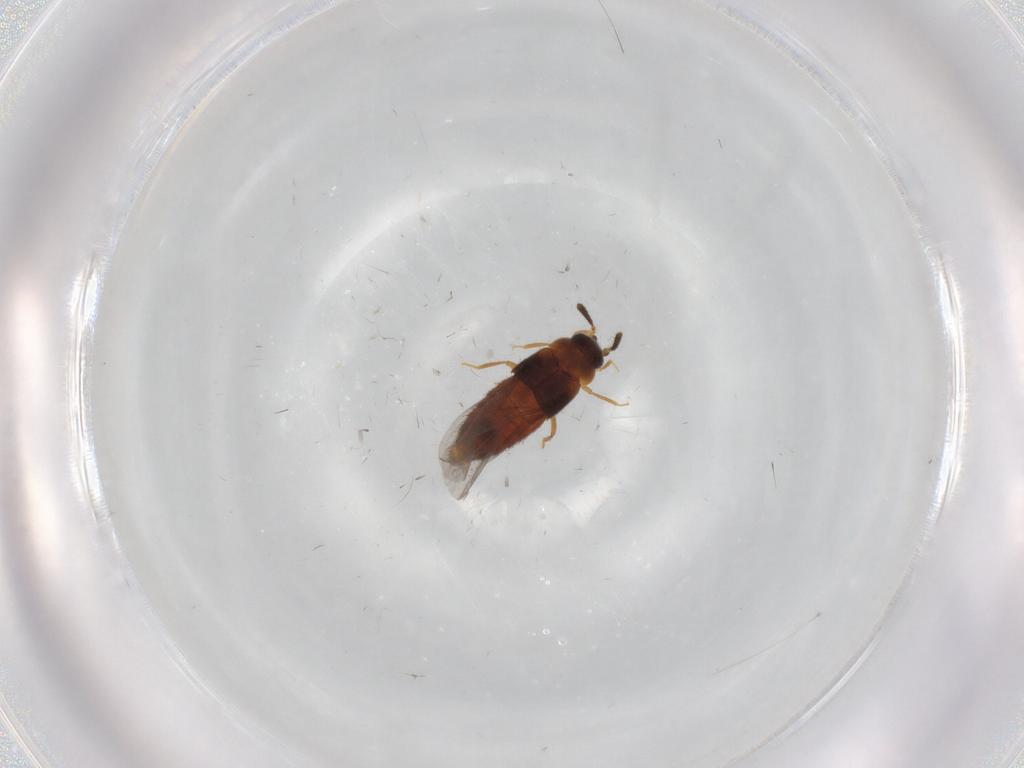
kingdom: Animalia
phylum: Arthropoda
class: Insecta
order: Coleoptera
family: Staphylinidae
